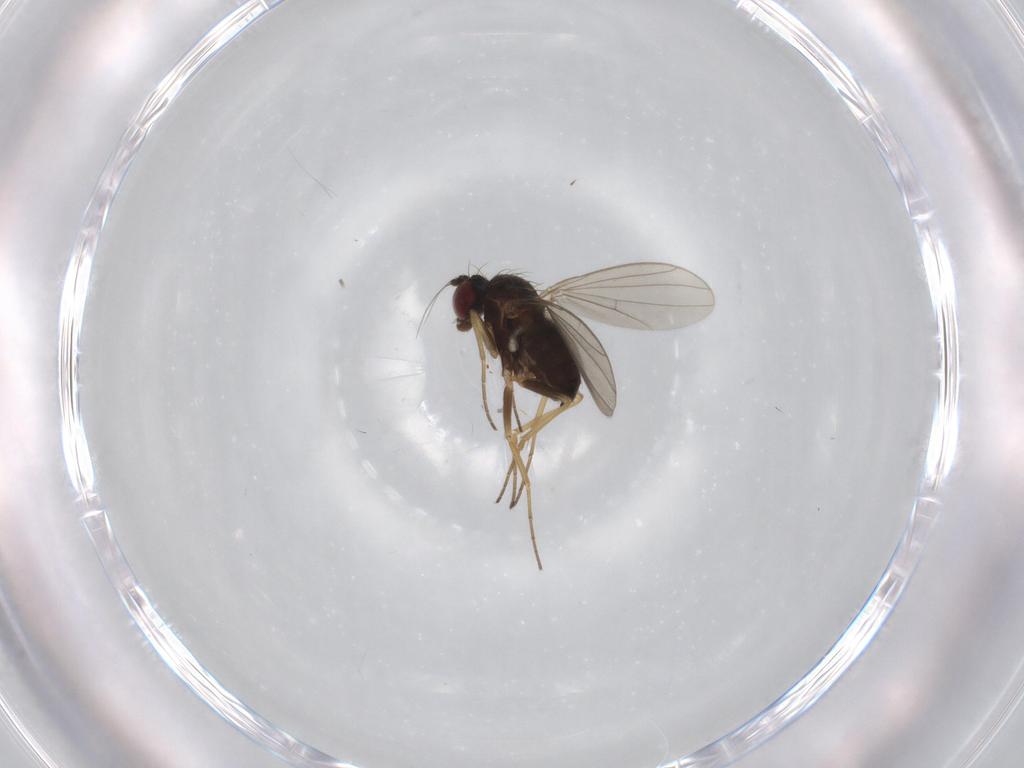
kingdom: Animalia
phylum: Arthropoda
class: Insecta
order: Diptera
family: Dolichopodidae
